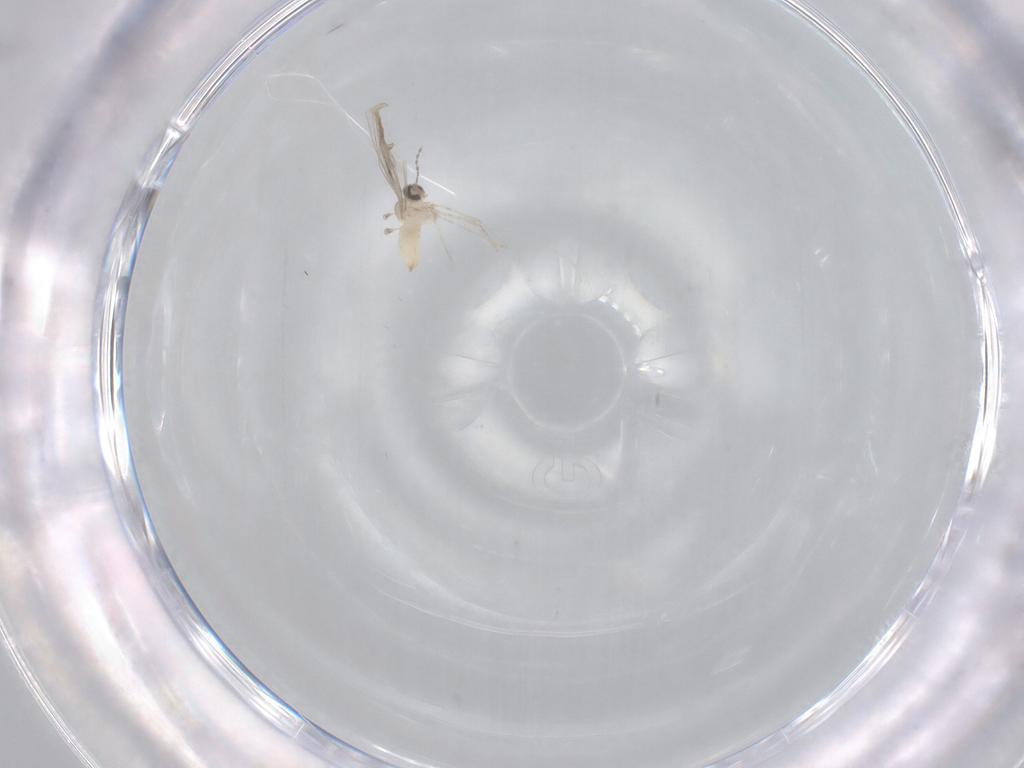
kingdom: Animalia
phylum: Arthropoda
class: Insecta
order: Diptera
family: Cecidomyiidae
